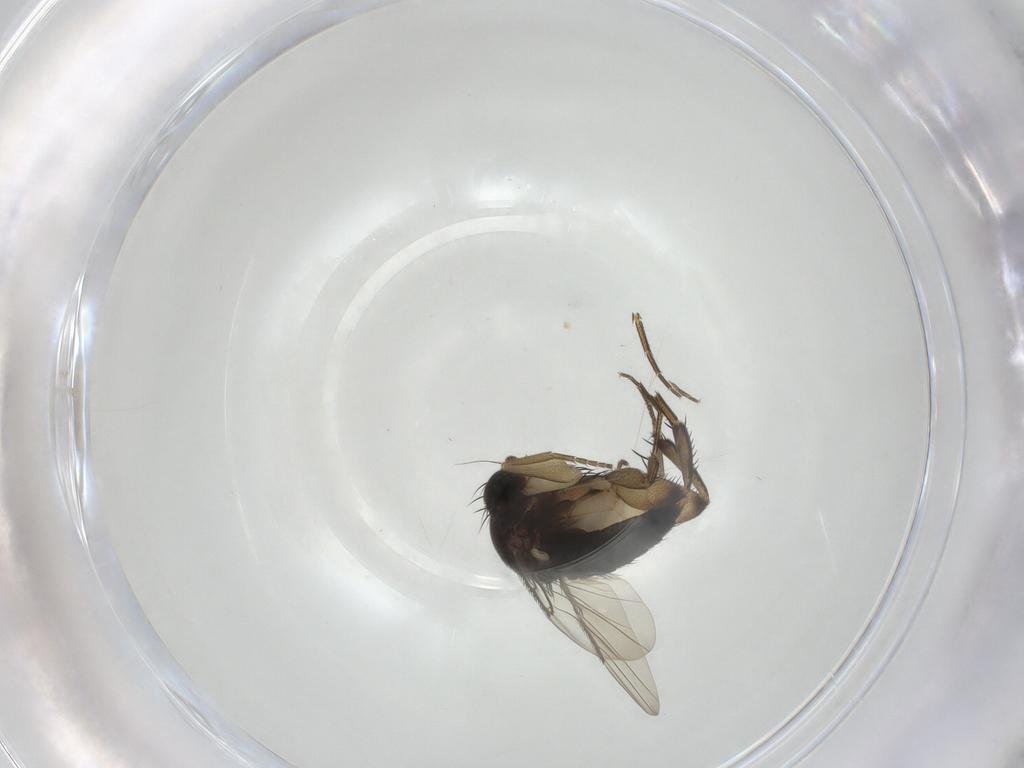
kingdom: Animalia
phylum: Arthropoda
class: Insecta
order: Diptera
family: Phoridae
